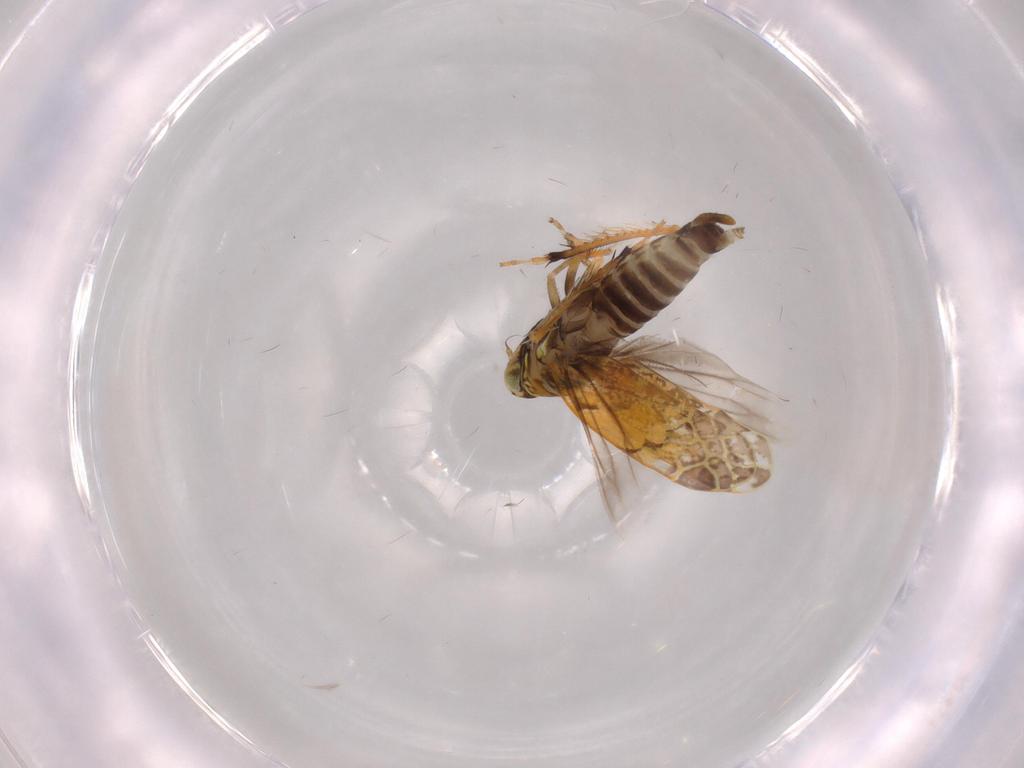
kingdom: Animalia
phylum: Arthropoda
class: Insecta
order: Hemiptera
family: Cicadellidae
